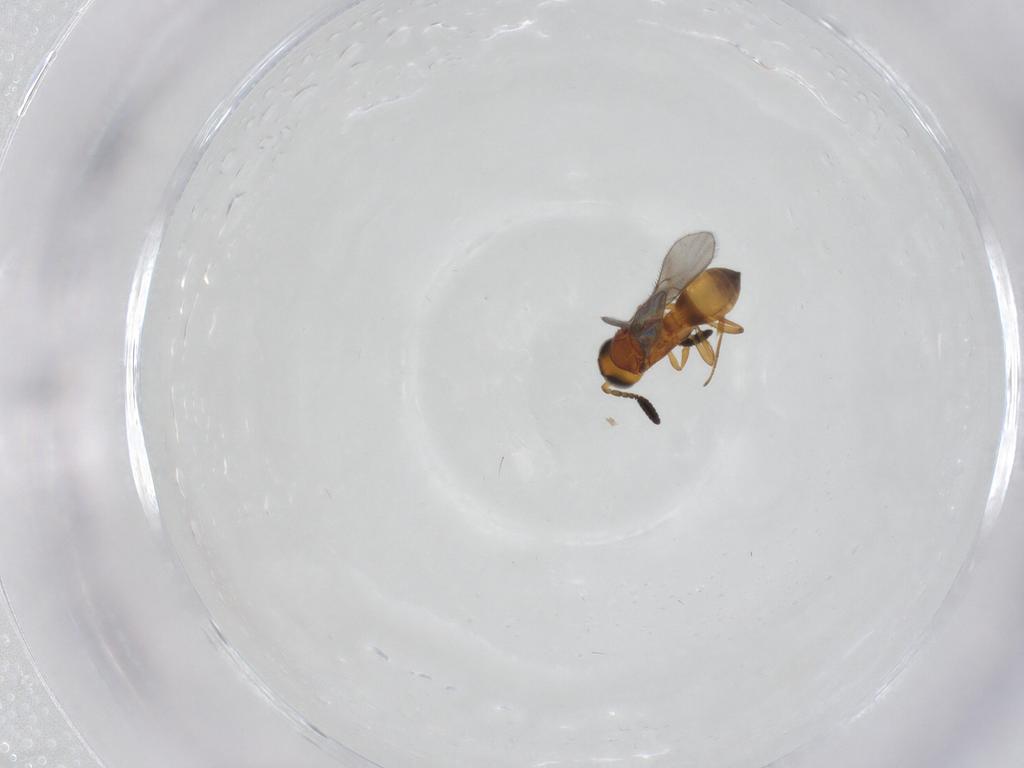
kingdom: Animalia
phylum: Arthropoda
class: Insecta
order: Hymenoptera
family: Scelionidae
